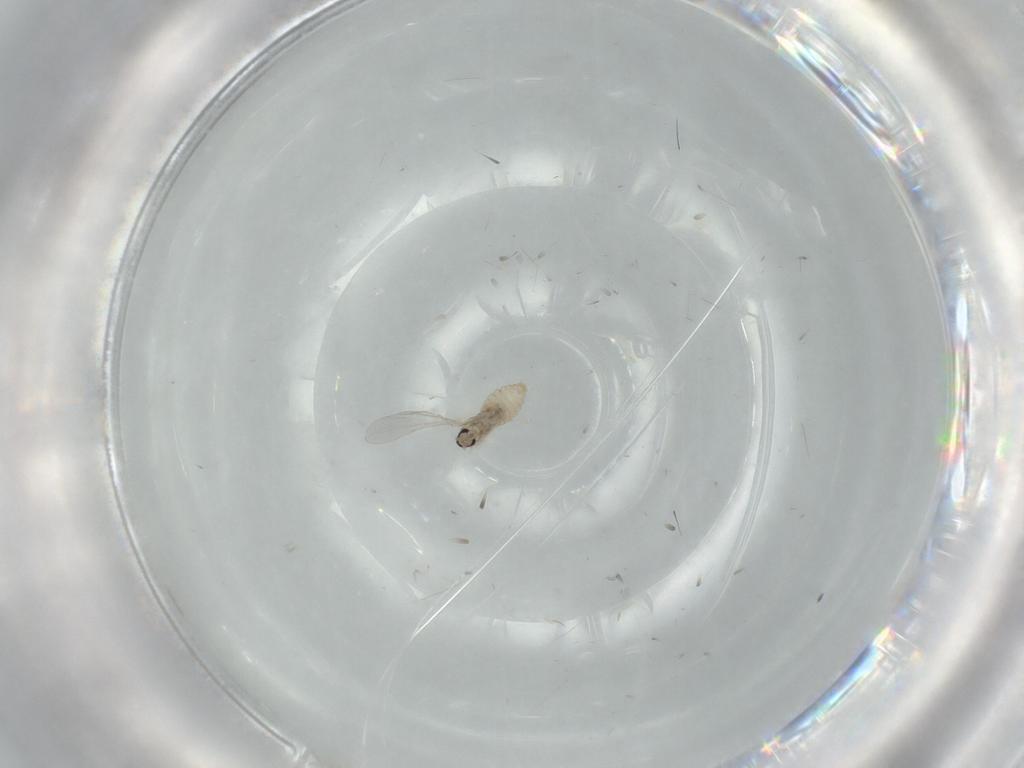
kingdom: Animalia
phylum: Arthropoda
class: Insecta
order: Diptera
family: Cecidomyiidae
